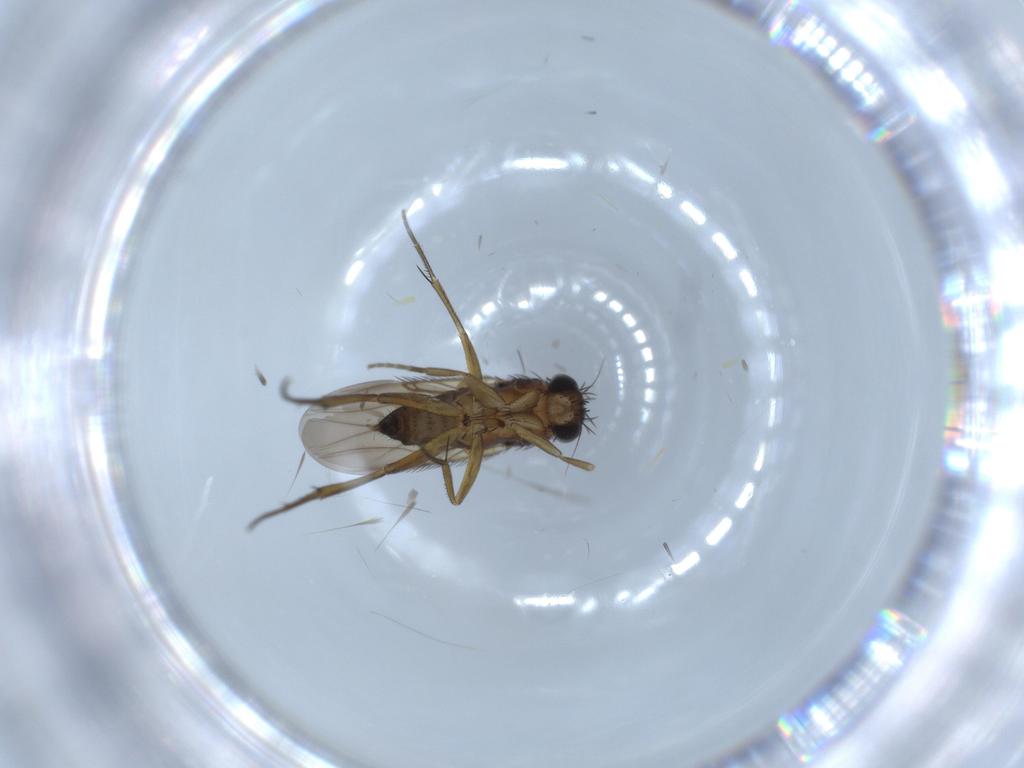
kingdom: Animalia
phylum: Arthropoda
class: Insecta
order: Diptera
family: Phoridae
